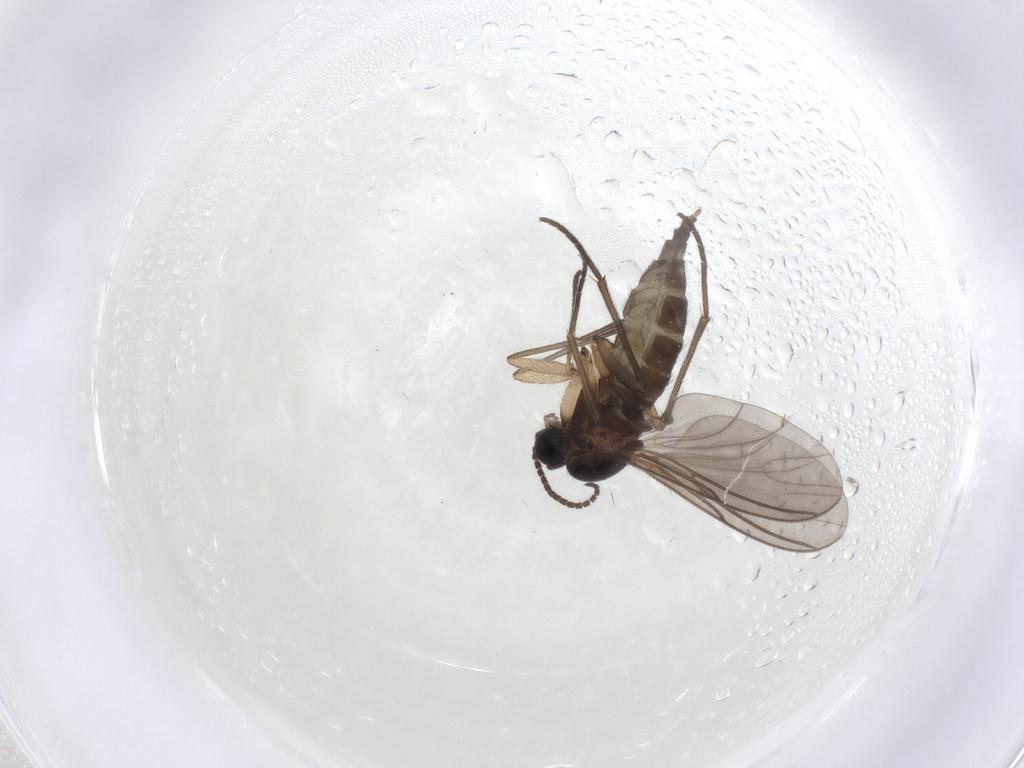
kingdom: Animalia
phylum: Arthropoda
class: Insecta
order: Diptera
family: Sciaridae
